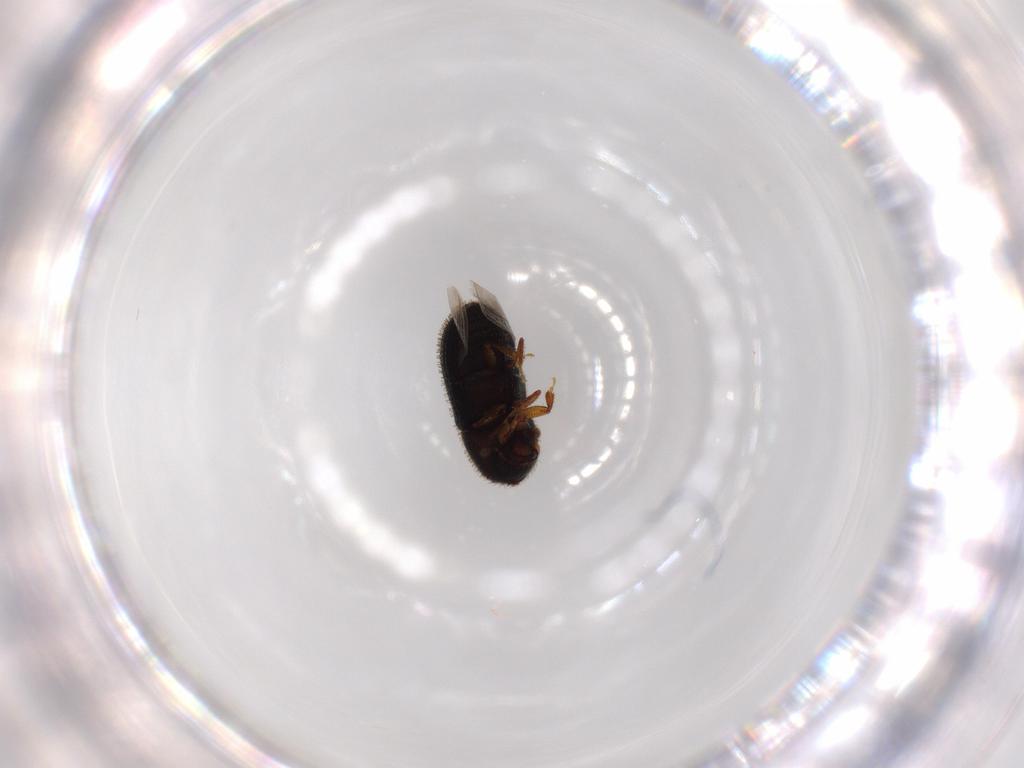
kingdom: Animalia
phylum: Arthropoda
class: Insecta
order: Coleoptera
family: Curculionidae
